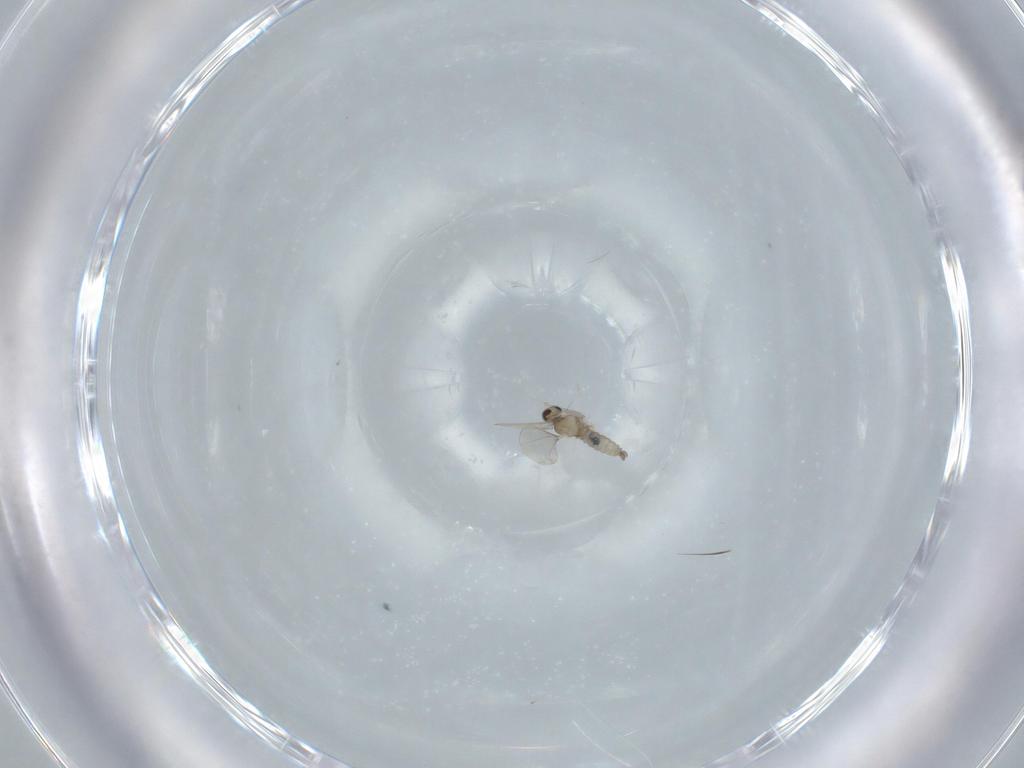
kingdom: Animalia
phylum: Arthropoda
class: Insecta
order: Diptera
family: Cecidomyiidae
